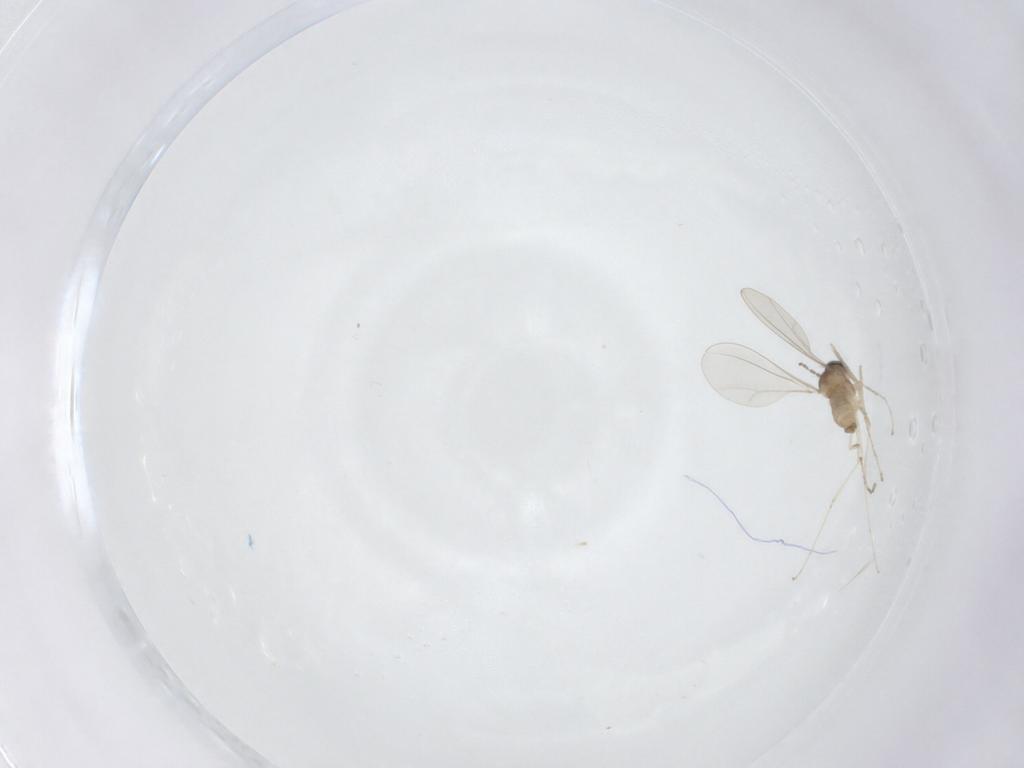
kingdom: Animalia
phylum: Arthropoda
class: Insecta
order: Diptera
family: Cecidomyiidae
